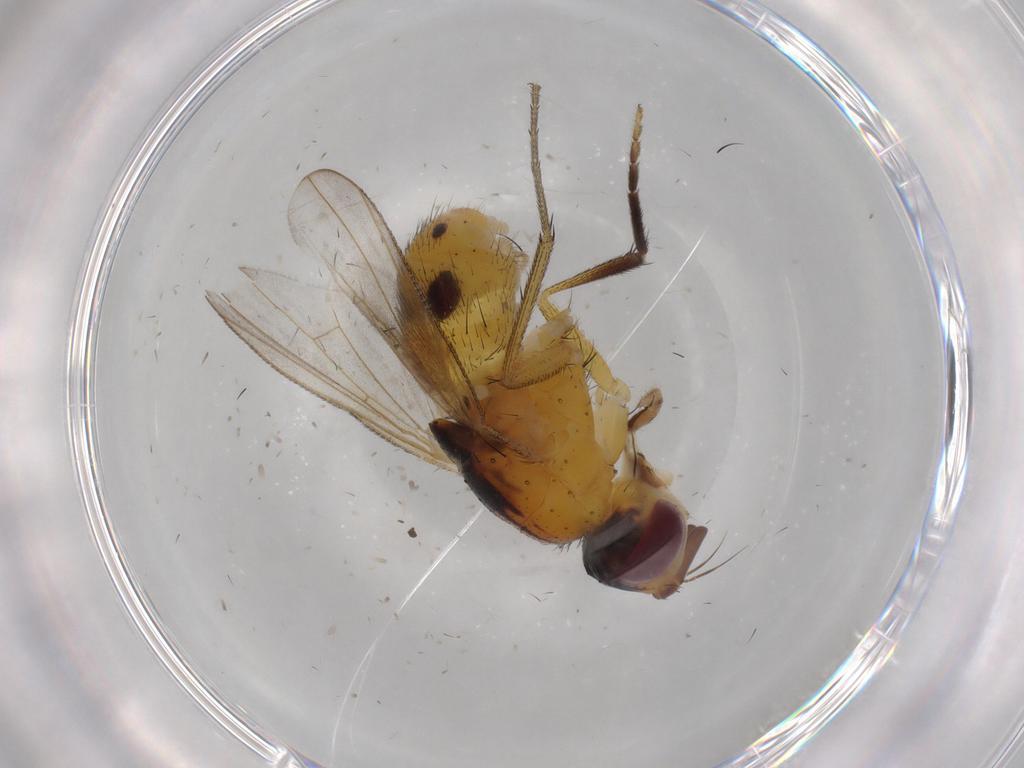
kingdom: Animalia
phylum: Arthropoda
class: Insecta
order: Diptera
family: Muscidae
